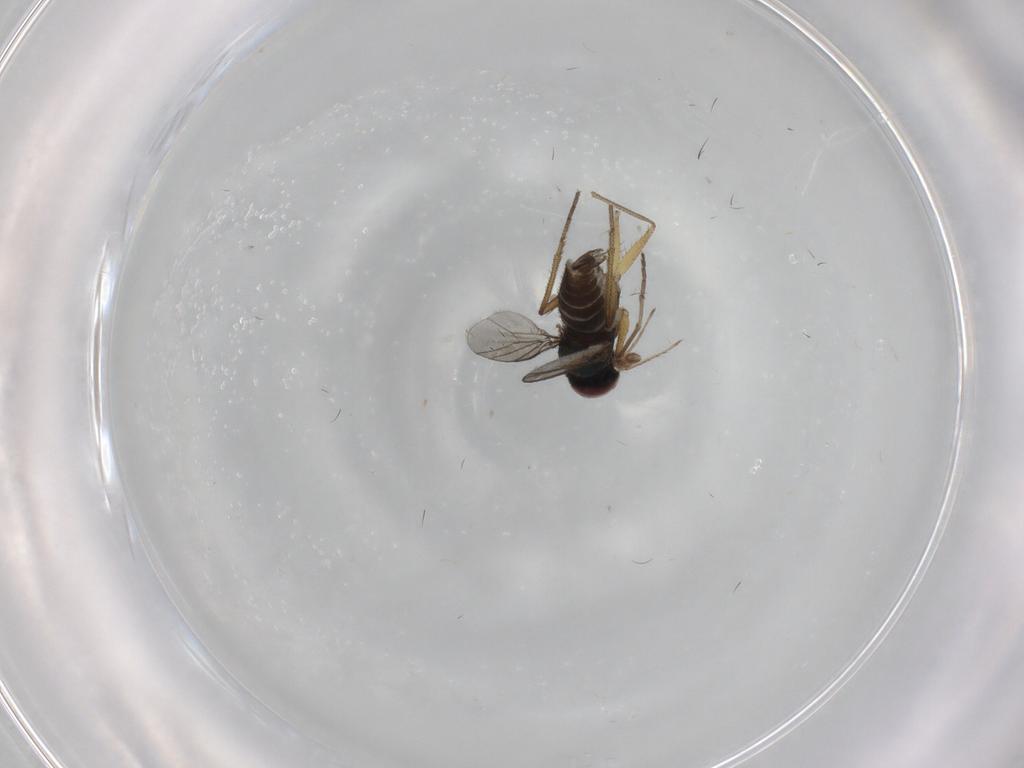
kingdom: Animalia
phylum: Arthropoda
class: Insecta
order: Diptera
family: Dolichopodidae
